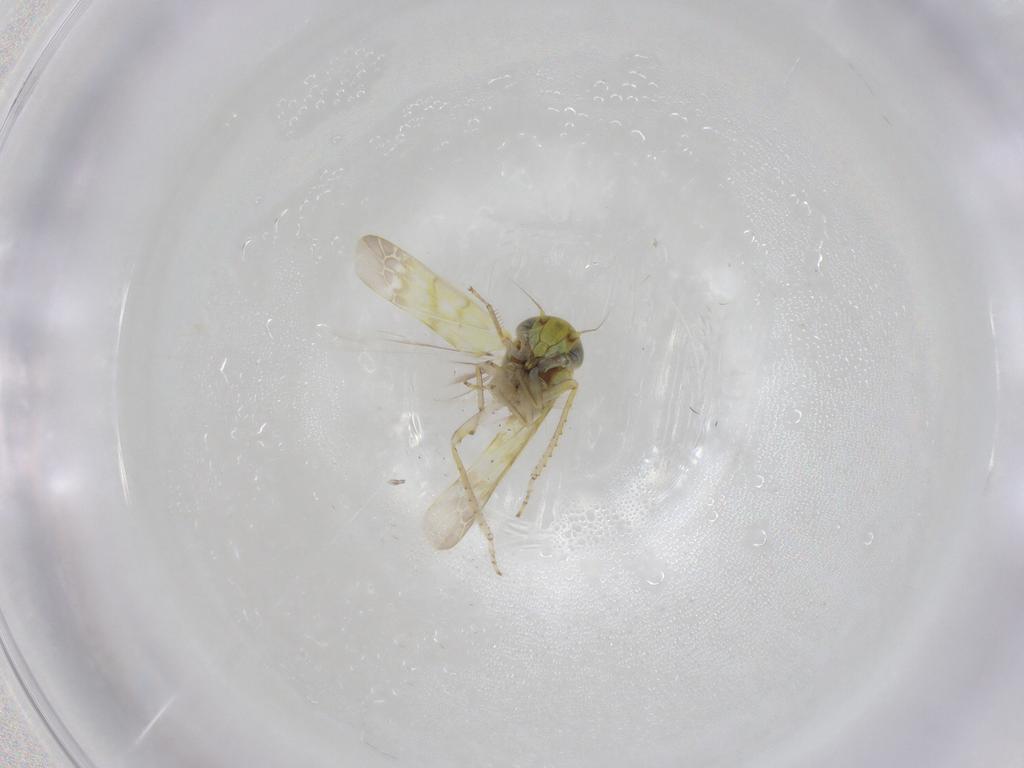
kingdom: Animalia
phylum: Arthropoda
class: Insecta
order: Hemiptera
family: Cicadellidae
